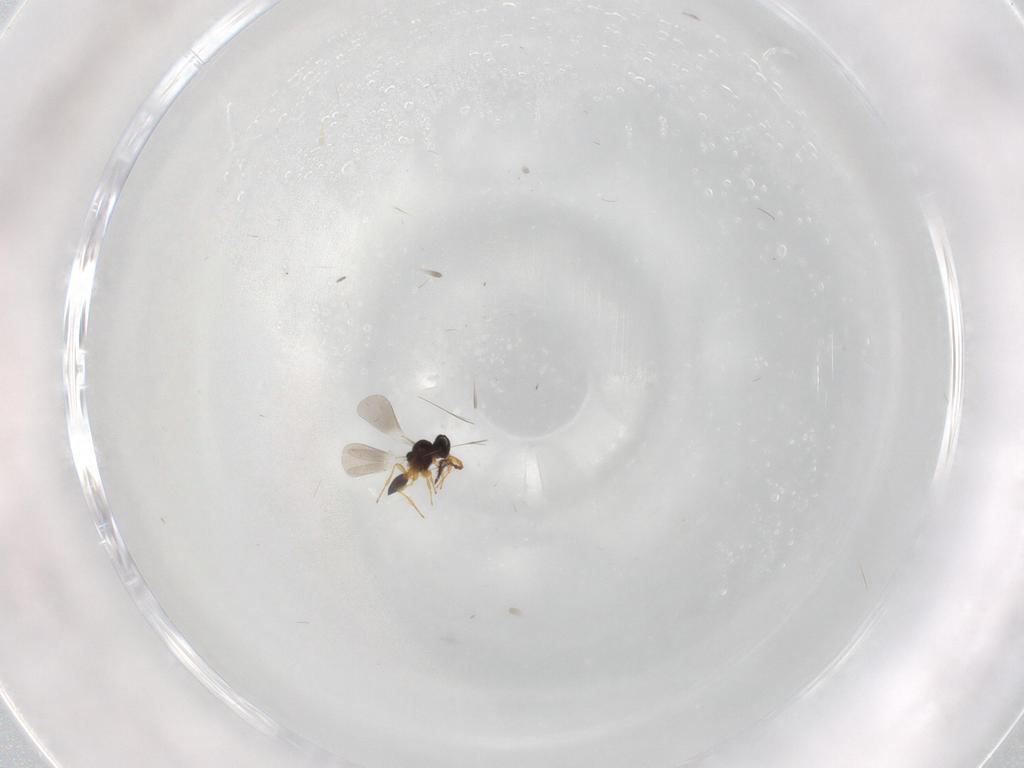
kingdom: Animalia
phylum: Arthropoda
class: Insecta
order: Hymenoptera
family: Platygastridae
